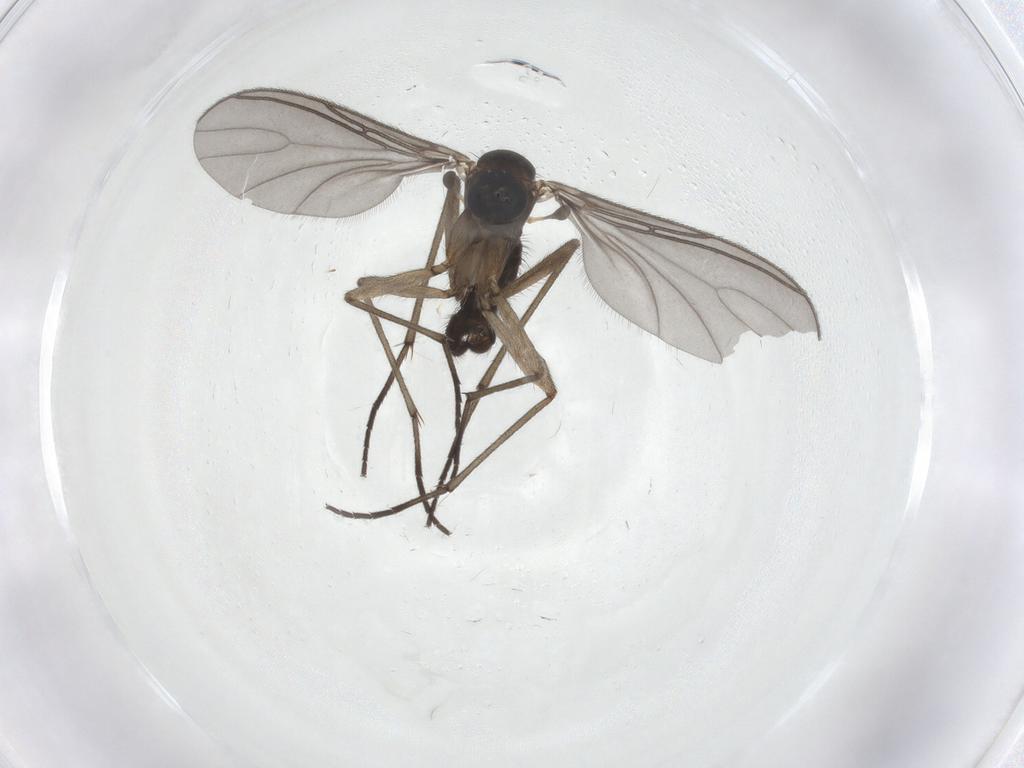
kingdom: Animalia
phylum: Arthropoda
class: Insecta
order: Diptera
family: Sciaridae
